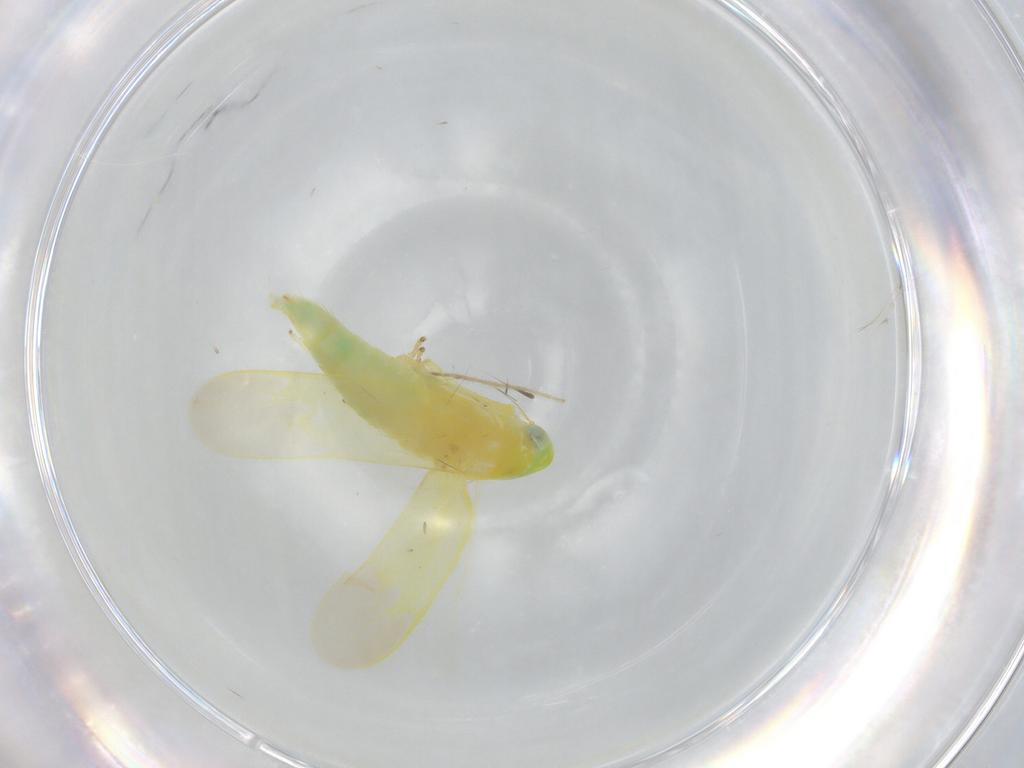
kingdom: Animalia
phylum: Arthropoda
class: Insecta
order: Hemiptera
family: Cicadellidae
